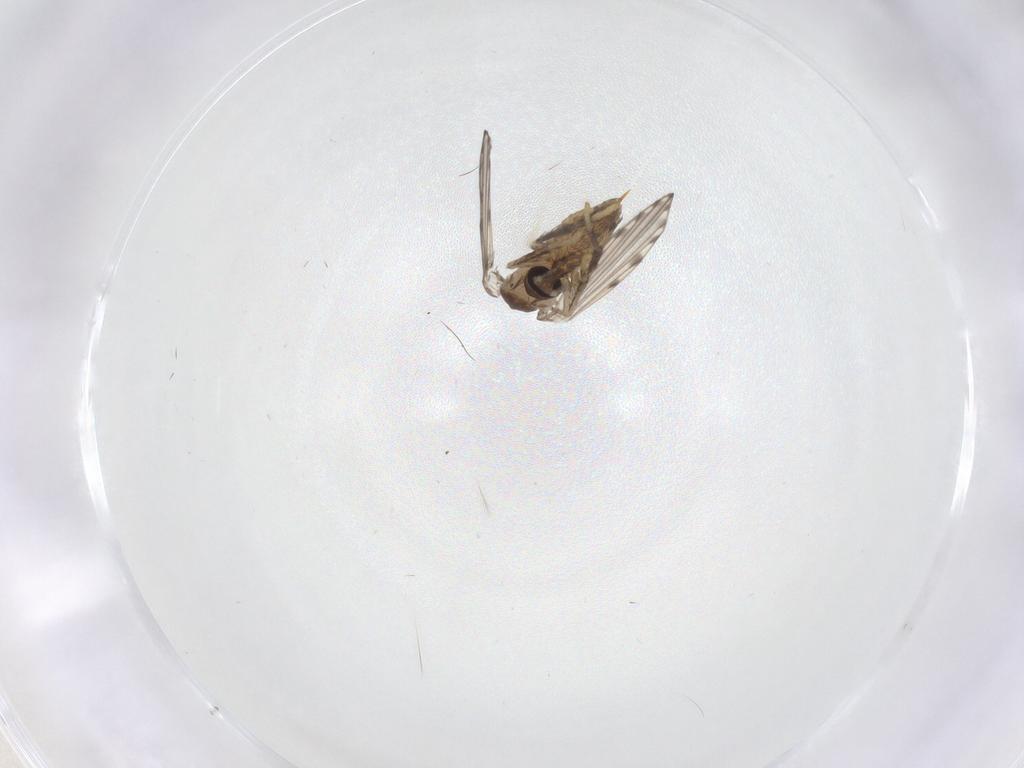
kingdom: Animalia
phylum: Arthropoda
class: Insecta
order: Diptera
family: Psychodidae
